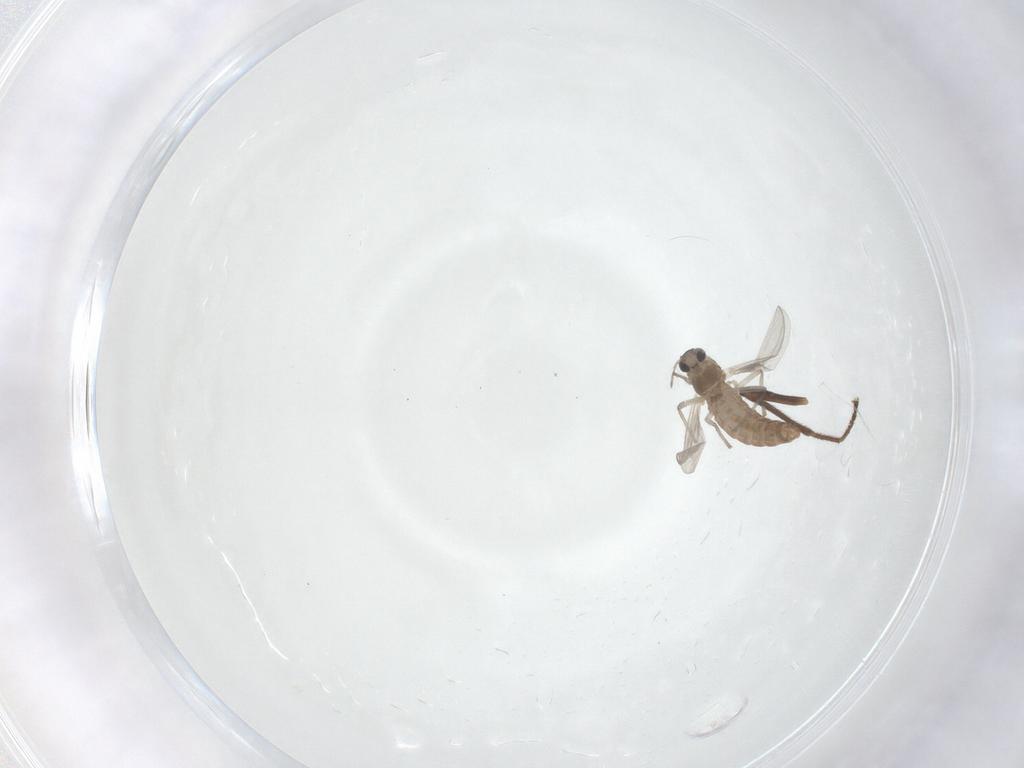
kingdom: Animalia
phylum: Arthropoda
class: Insecta
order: Diptera
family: Chironomidae
